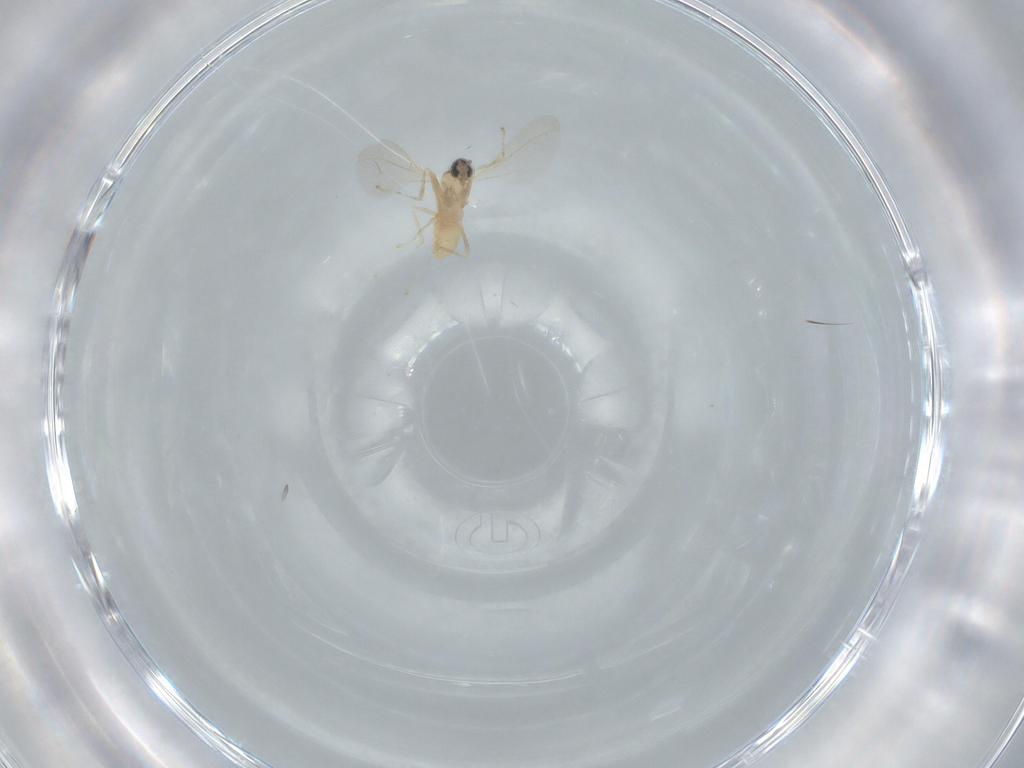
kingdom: Animalia
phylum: Arthropoda
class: Insecta
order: Diptera
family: Cecidomyiidae
